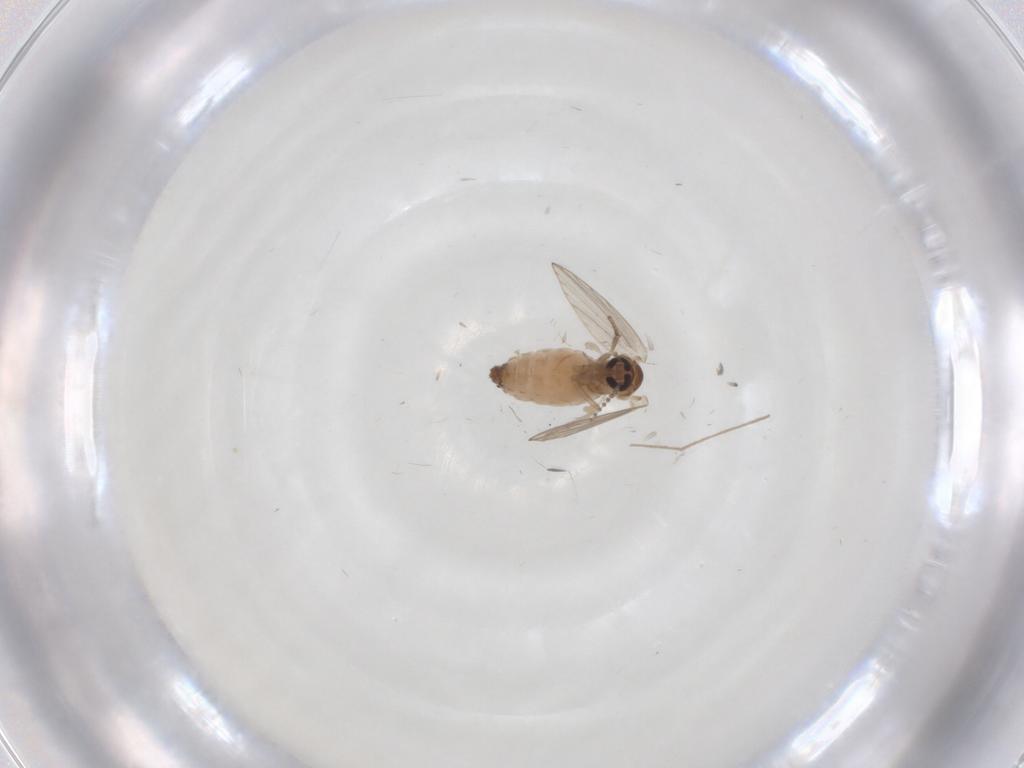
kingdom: Animalia
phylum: Arthropoda
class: Insecta
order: Diptera
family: Chironomidae
